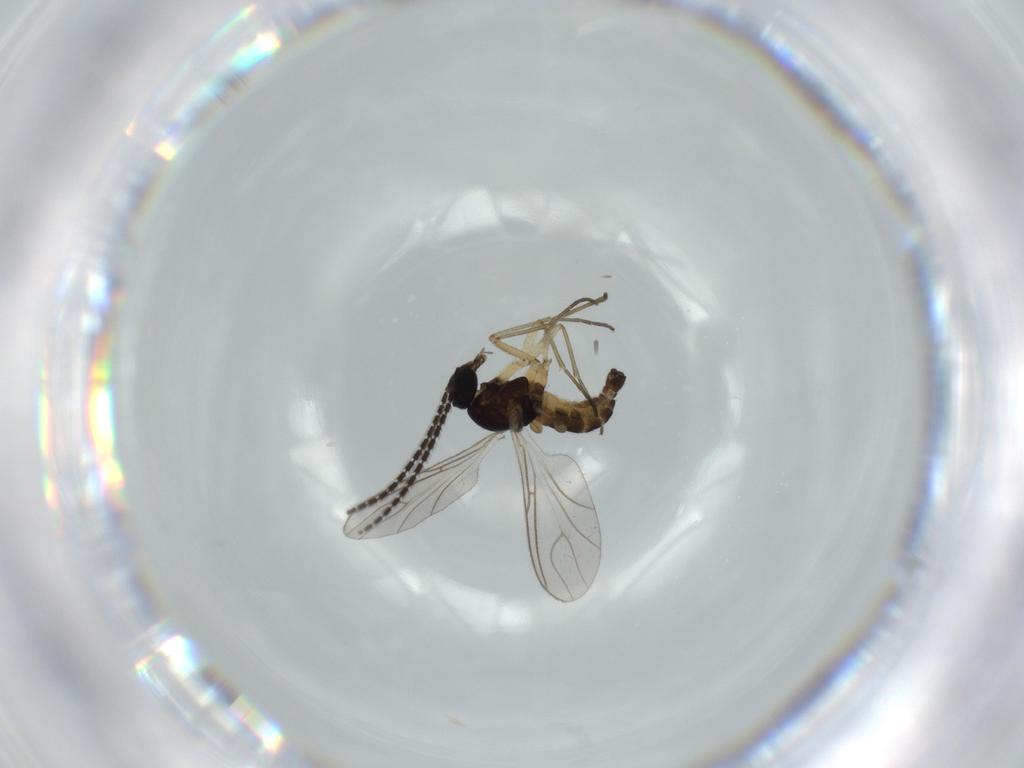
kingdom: Animalia
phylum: Arthropoda
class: Insecta
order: Diptera
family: Sciaridae
